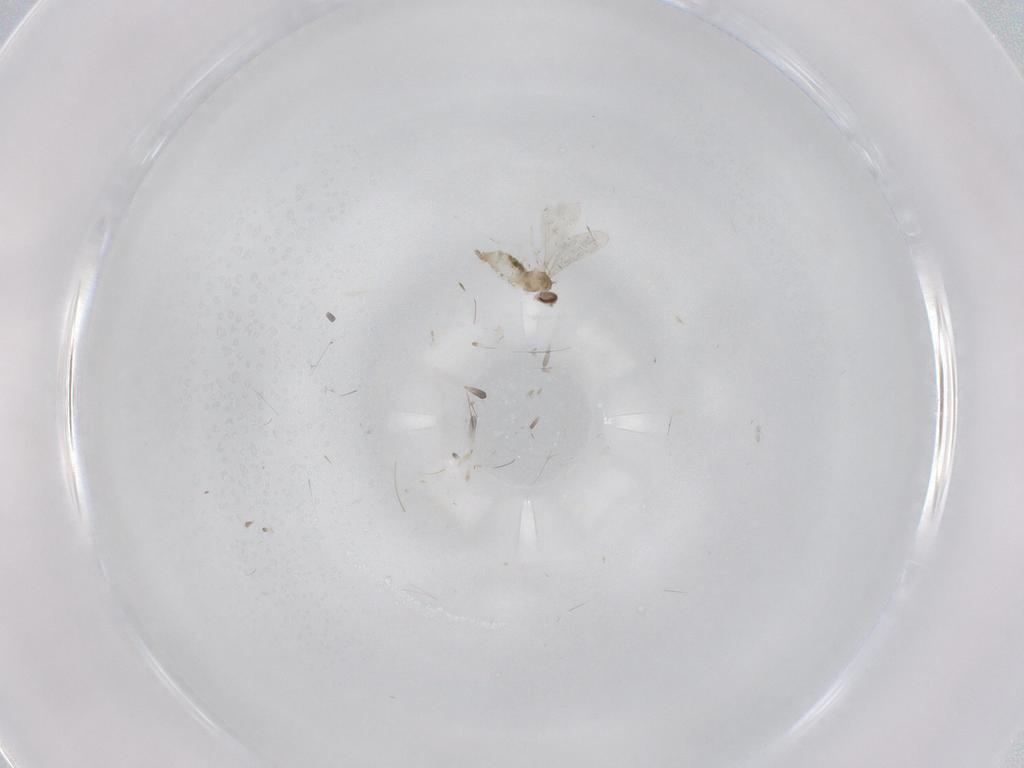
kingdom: Animalia
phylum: Arthropoda
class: Insecta
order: Diptera
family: Cecidomyiidae
